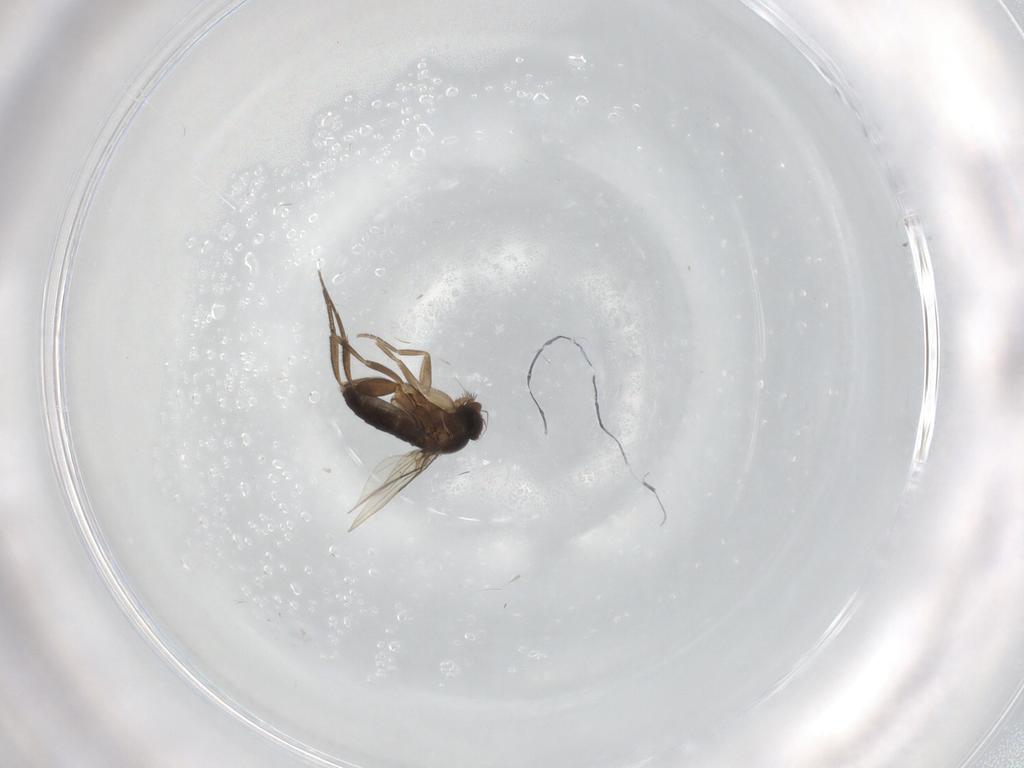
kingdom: Animalia
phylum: Arthropoda
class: Insecta
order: Diptera
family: Phoridae
